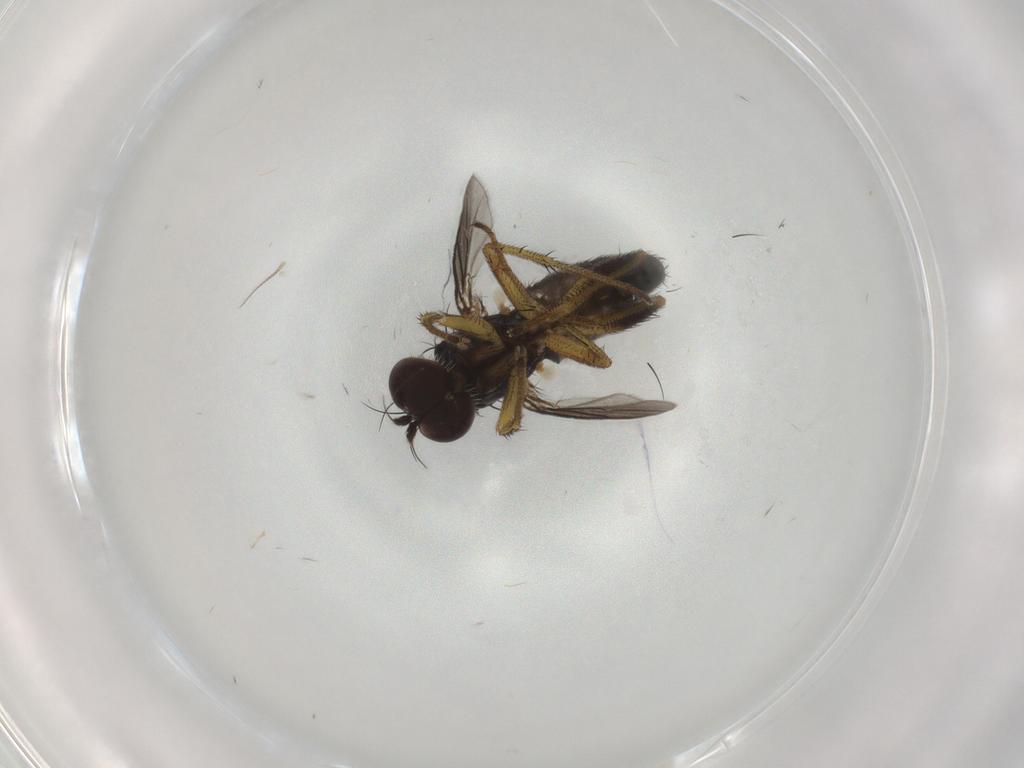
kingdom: Animalia
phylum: Arthropoda
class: Insecta
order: Diptera
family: Dolichopodidae
